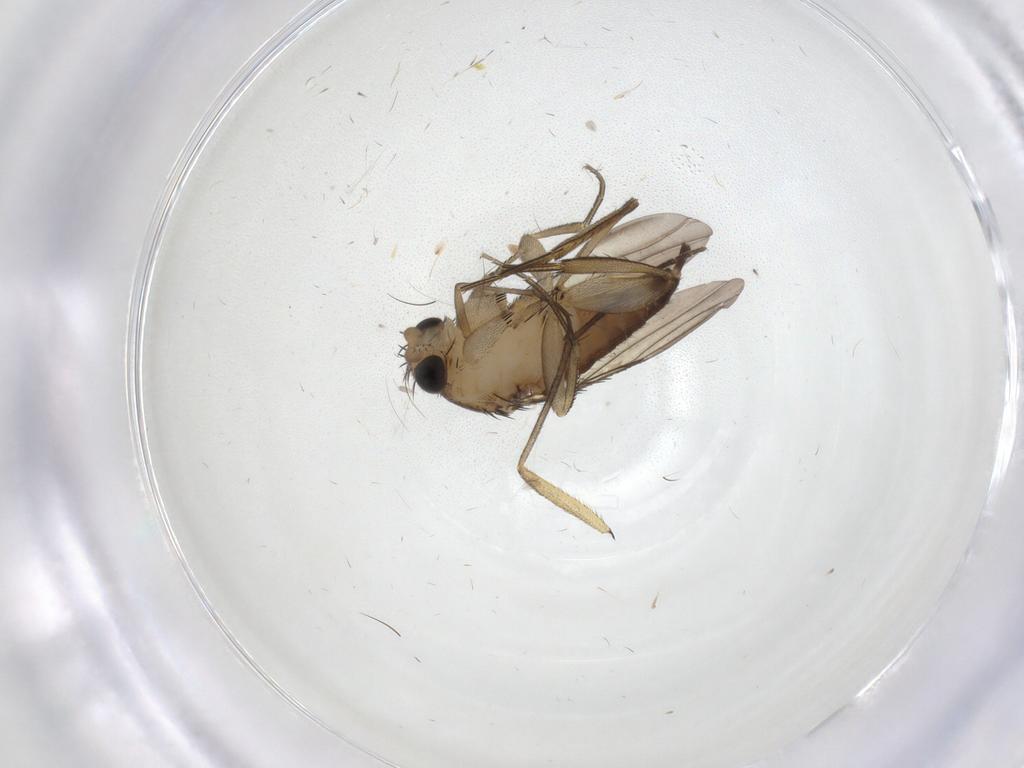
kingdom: Animalia
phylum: Arthropoda
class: Insecta
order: Diptera
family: Sciaridae
